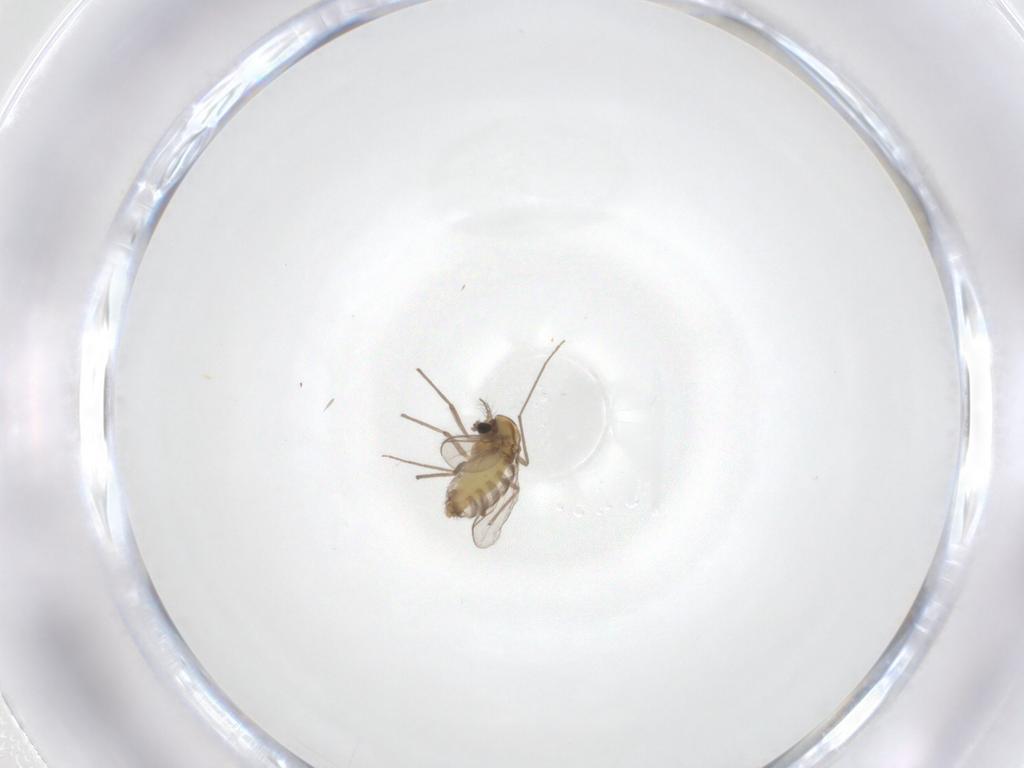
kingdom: Animalia
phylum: Arthropoda
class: Insecta
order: Diptera
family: Chironomidae
